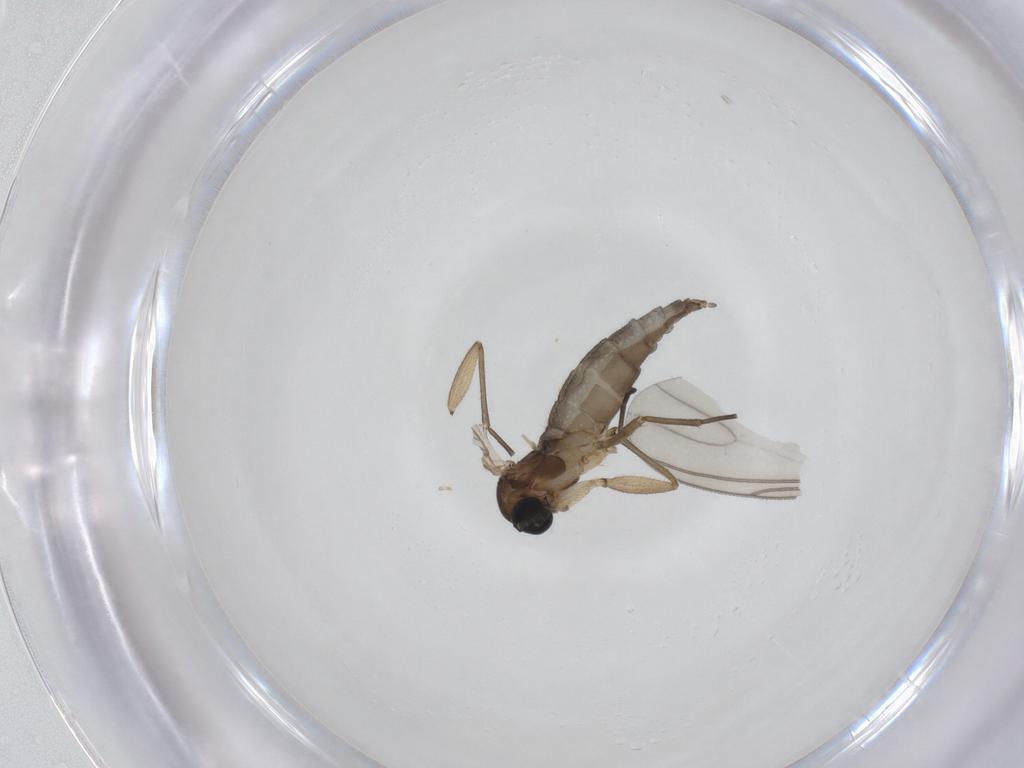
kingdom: Animalia
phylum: Arthropoda
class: Insecta
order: Diptera
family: Sciaridae
